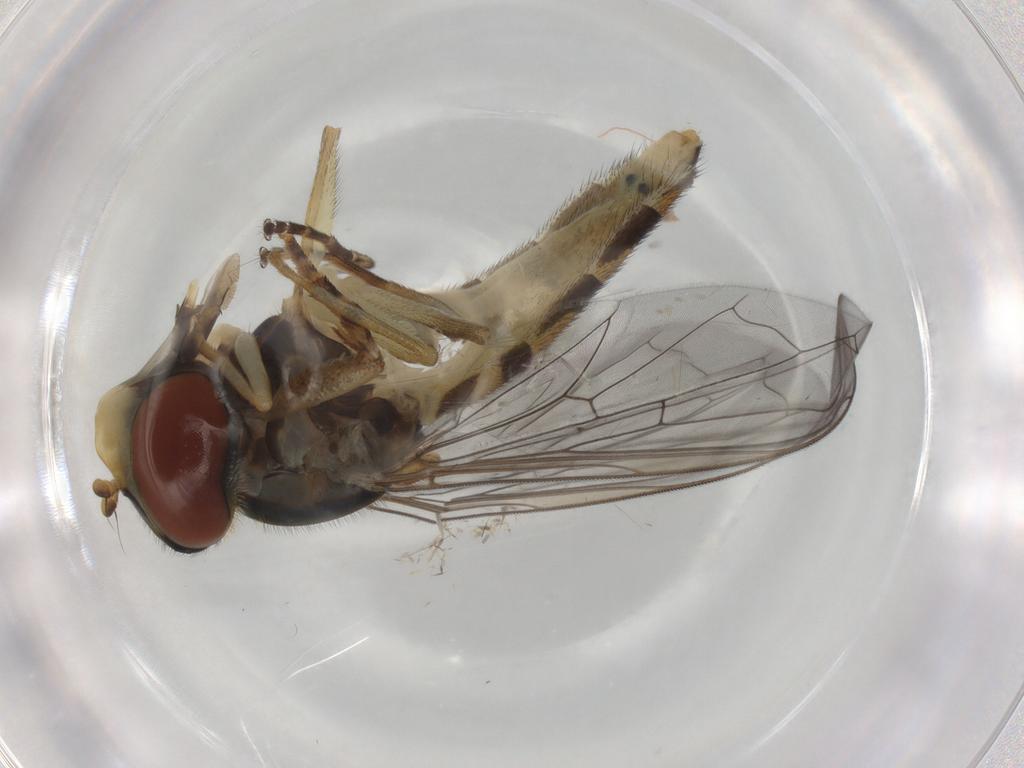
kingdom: Animalia
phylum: Arthropoda
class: Insecta
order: Diptera
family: Syrphidae
